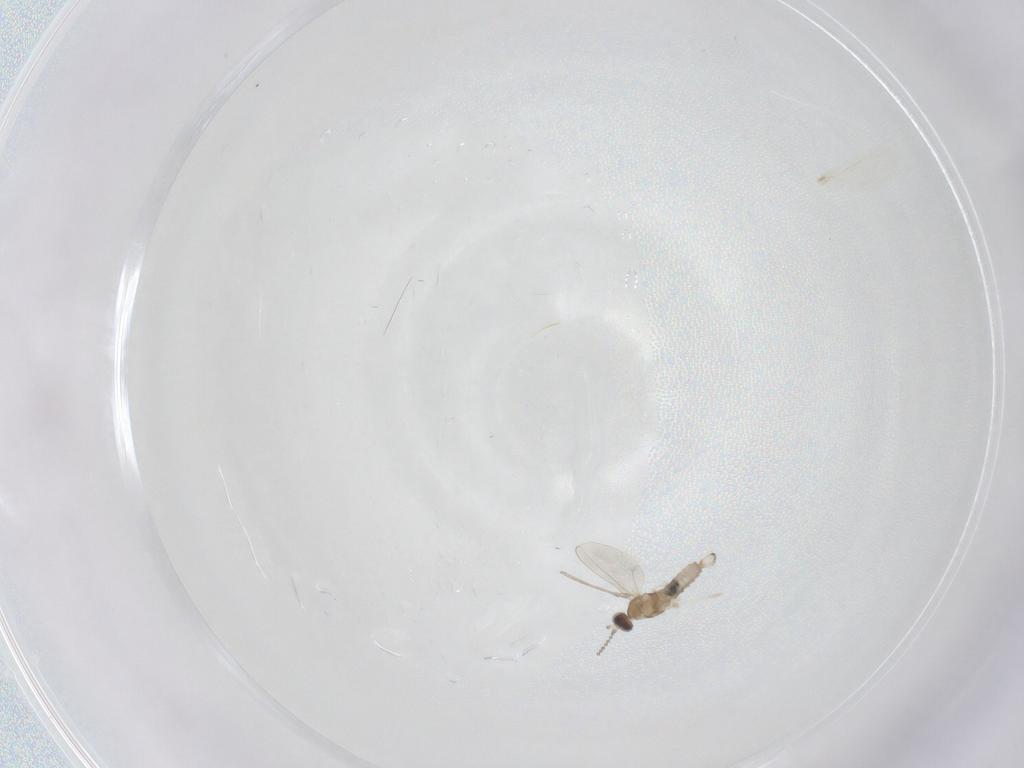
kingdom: Animalia
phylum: Arthropoda
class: Insecta
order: Diptera
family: Cecidomyiidae
